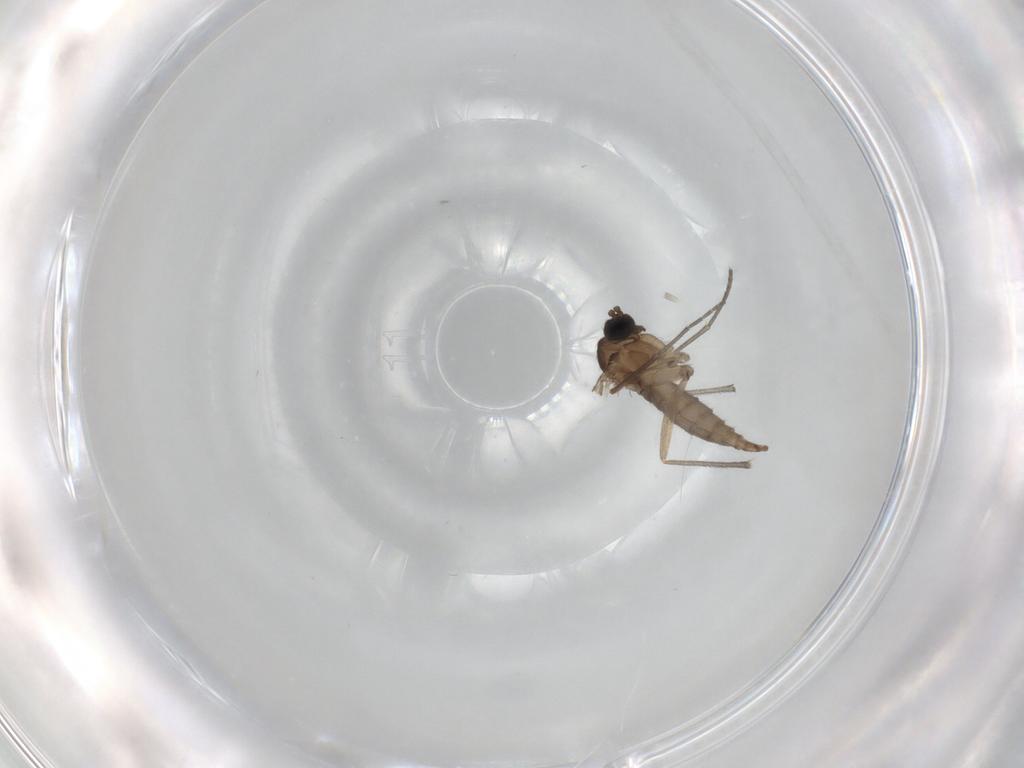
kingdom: Animalia
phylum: Arthropoda
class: Insecta
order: Diptera
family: Sciaridae
